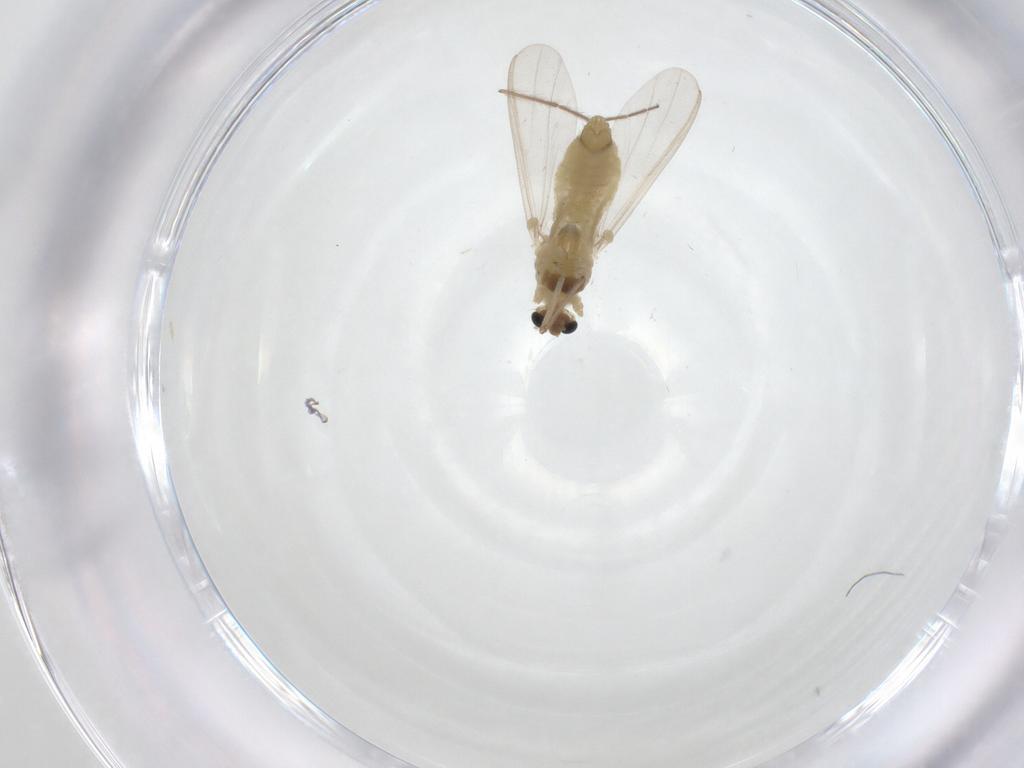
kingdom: Animalia
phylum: Arthropoda
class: Insecta
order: Diptera
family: Chironomidae
